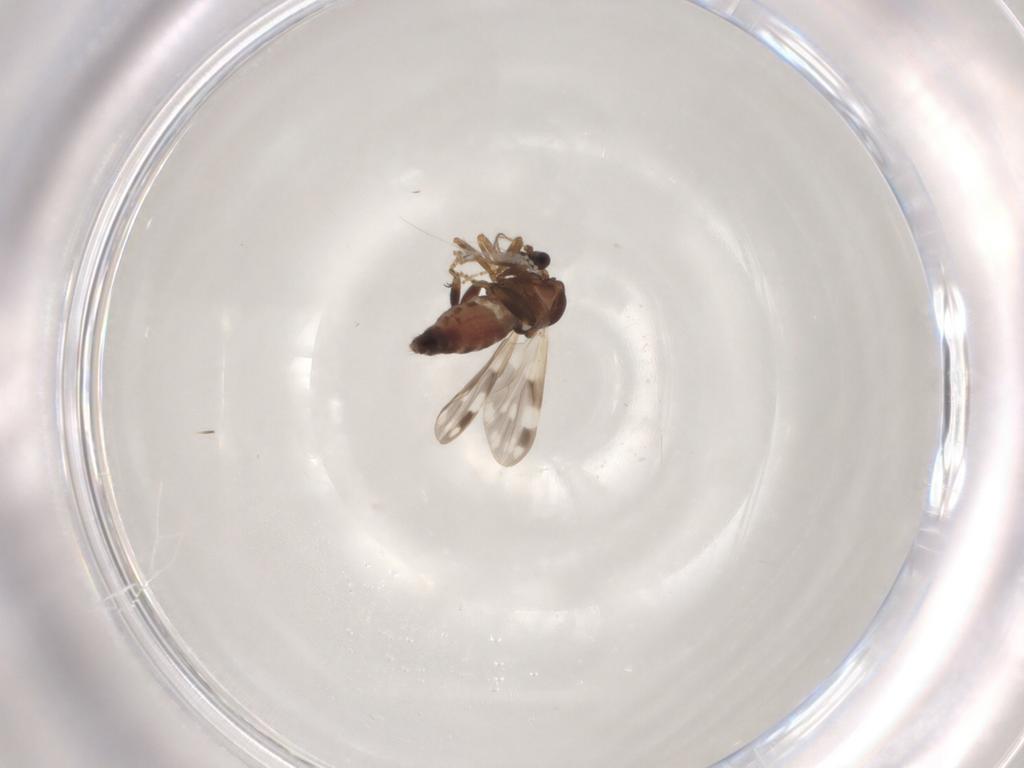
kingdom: Animalia
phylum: Arthropoda
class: Insecta
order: Diptera
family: Ceratopogonidae
